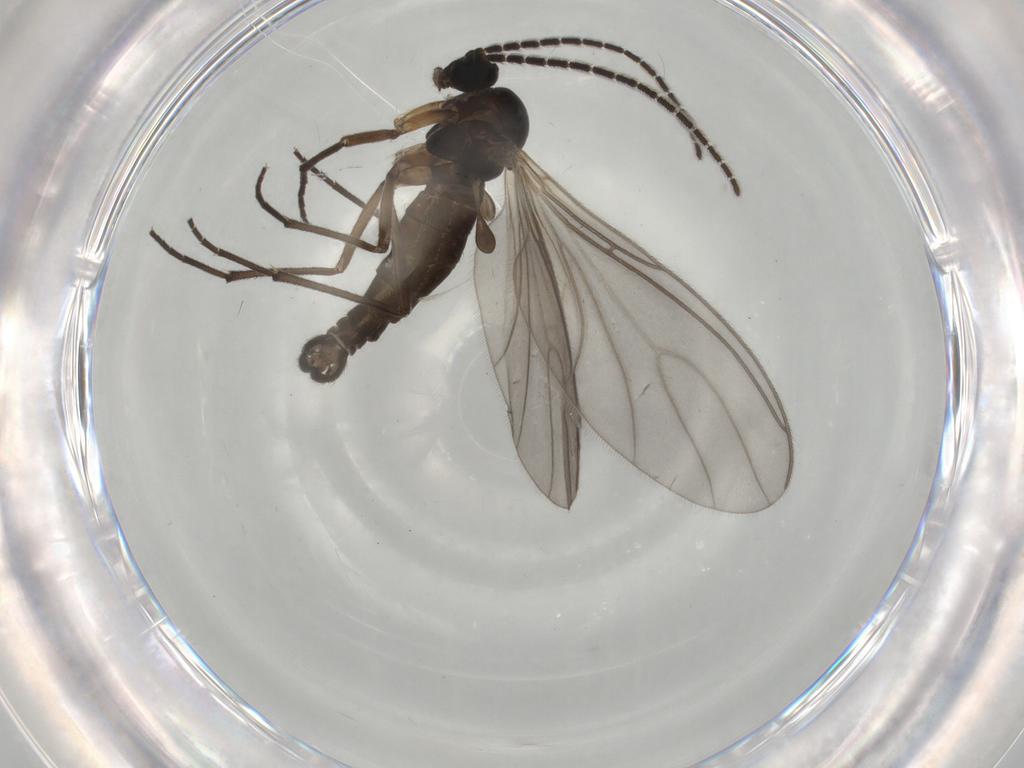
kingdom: Animalia
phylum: Arthropoda
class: Insecta
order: Diptera
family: Sciaridae
